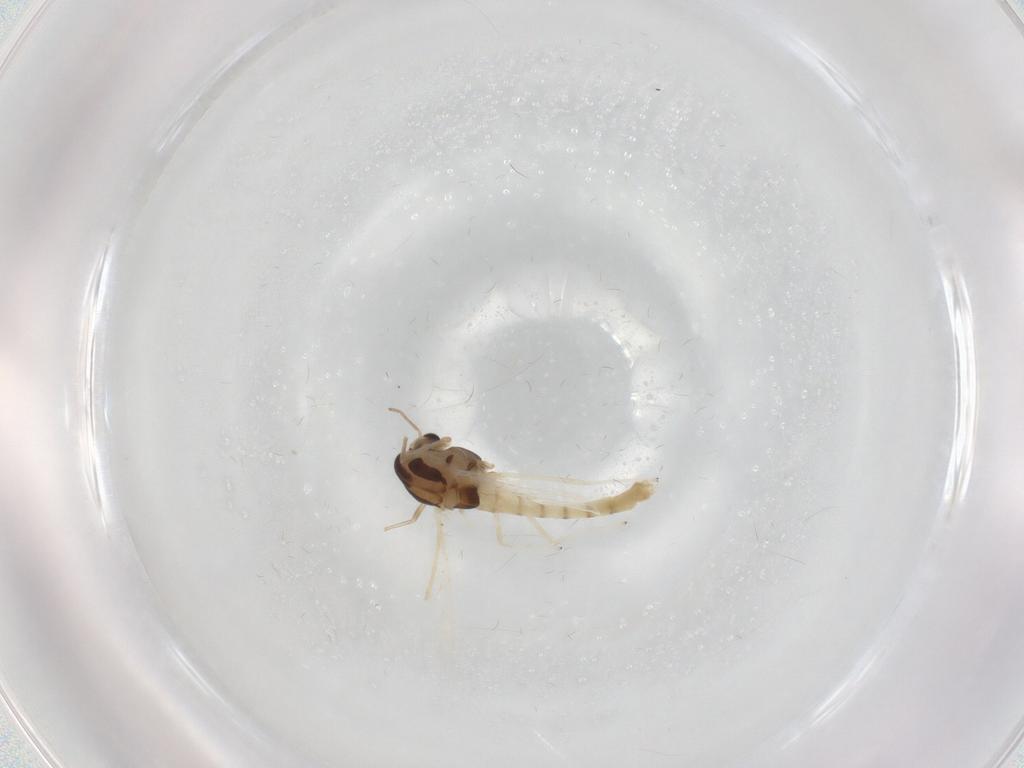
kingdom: Animalia
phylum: Arthropoda
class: Insecta
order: Diptera
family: Chironomidae
